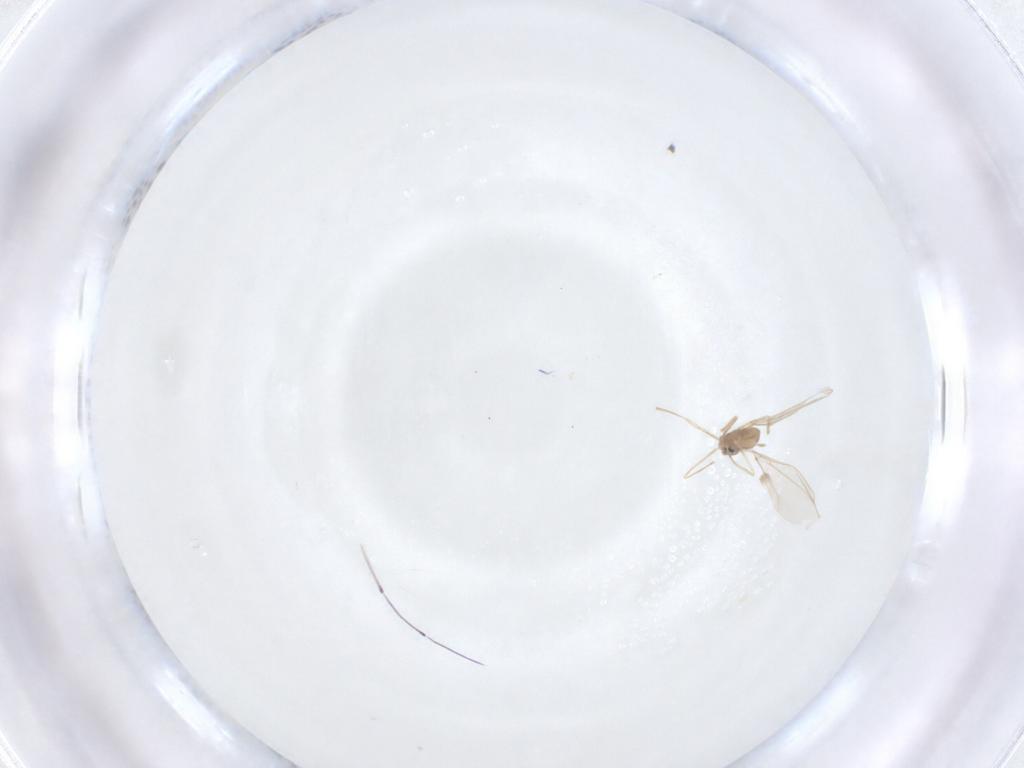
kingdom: Animalia
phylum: Arthropoda
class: Insecta
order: Diptera
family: Cecidomyiidae
